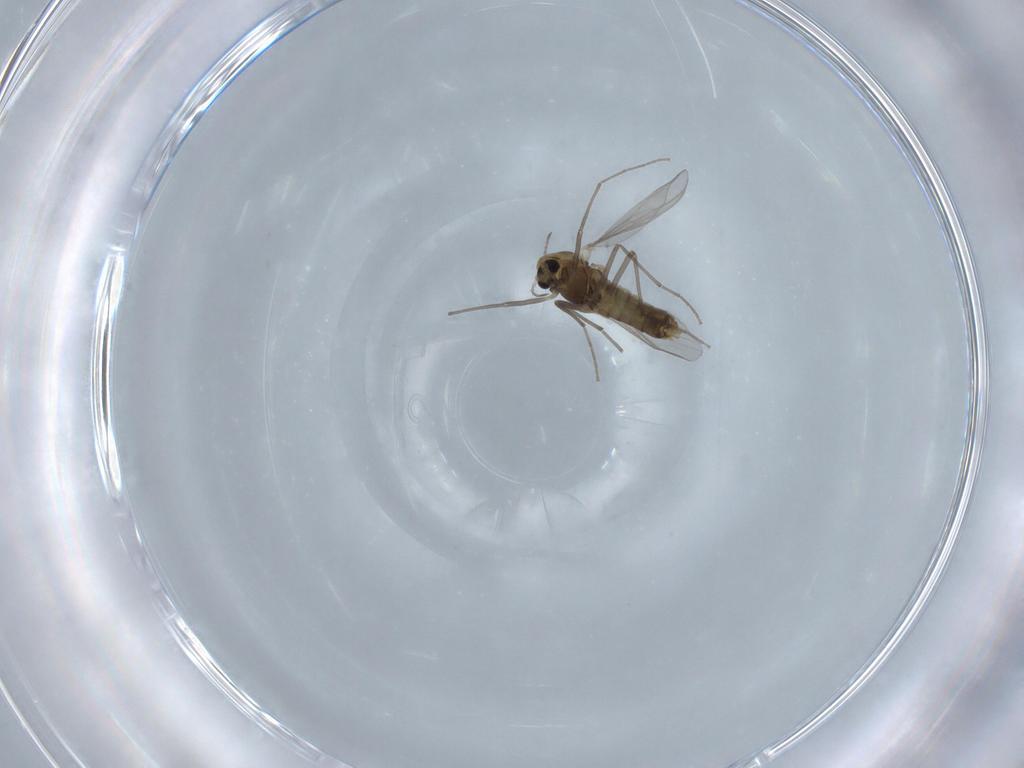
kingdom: Animalia
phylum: Arthropoda
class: Insecta
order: Diptera
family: Chironomidae
